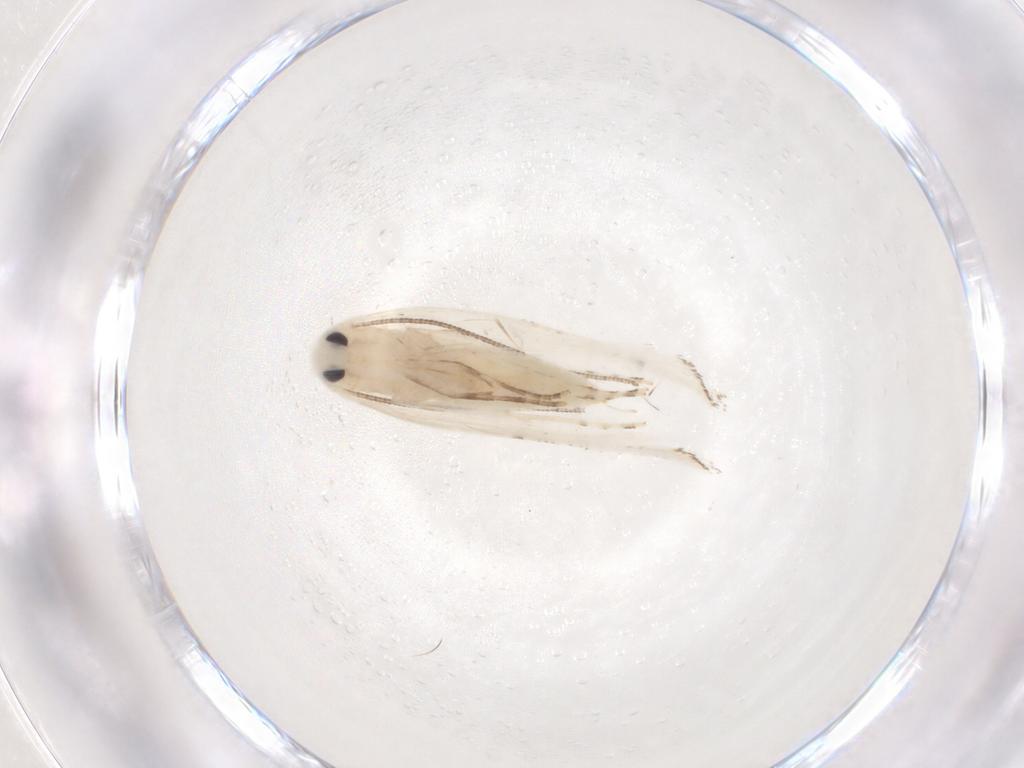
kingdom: Animalia
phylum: Arthropoda
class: Insecta
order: Lepidoptera
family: Lyonetiidae
